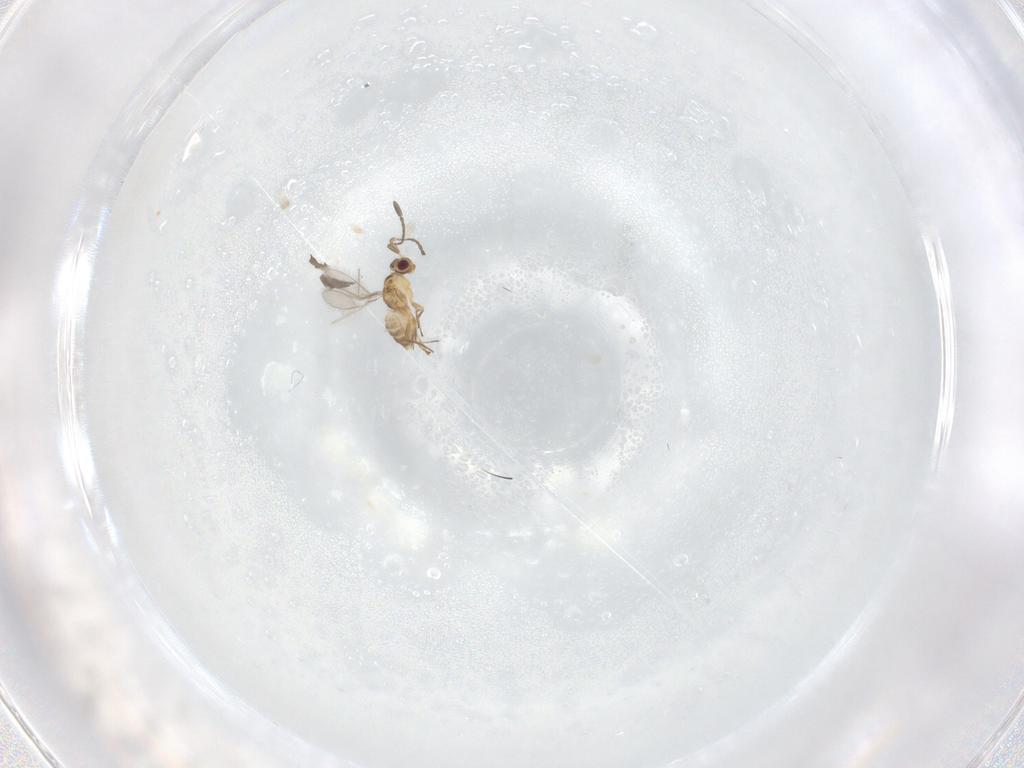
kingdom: Animalia
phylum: Arthropoda
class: Insecta
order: Hymenoptera
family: Mymaridae
